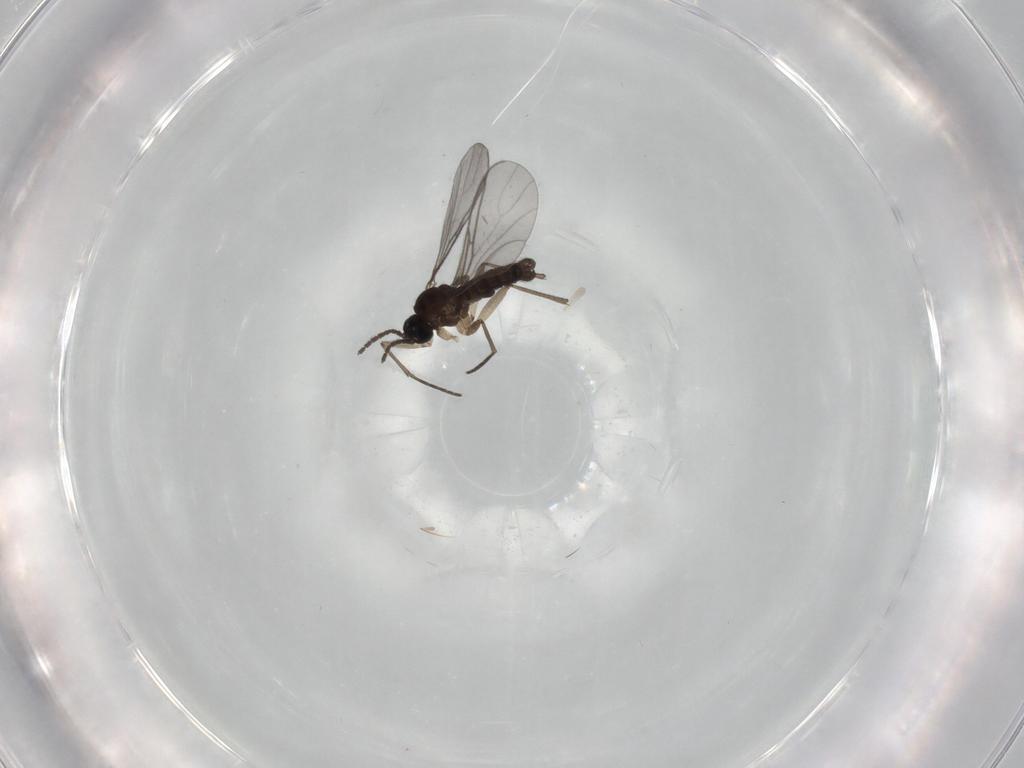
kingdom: Animalia
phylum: Arthropoda
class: Insecta
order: Diptera
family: Sciaridae
